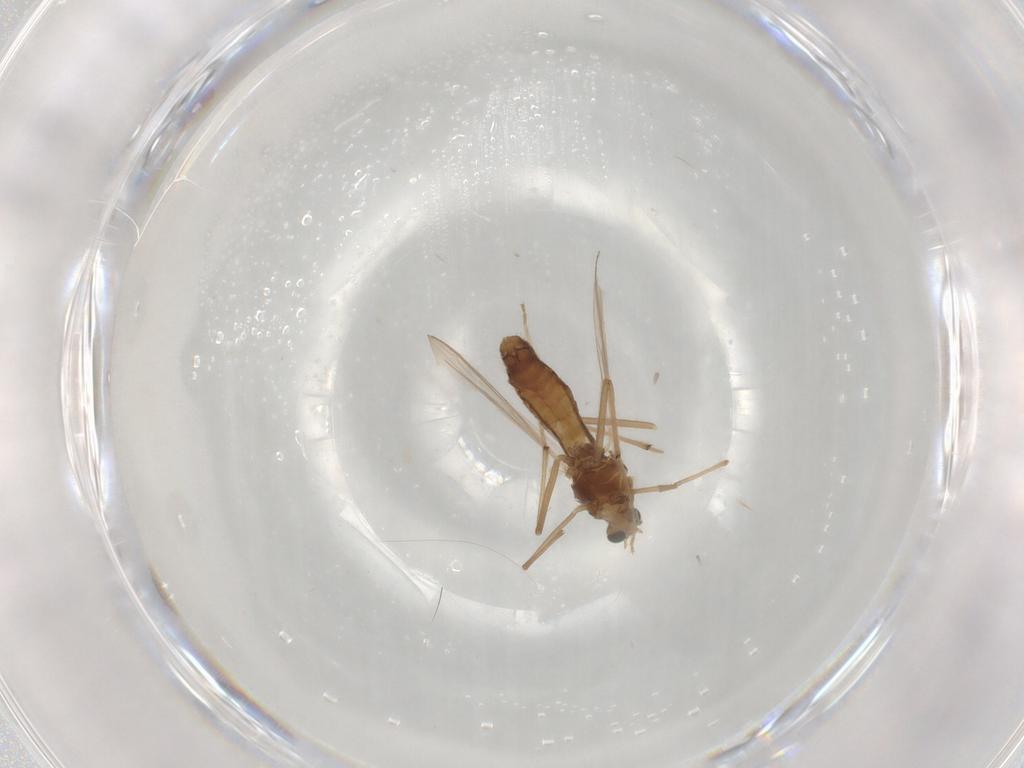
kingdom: Animalia
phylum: Arthropoda
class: Insecta
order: Diptera
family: Chironomidae
